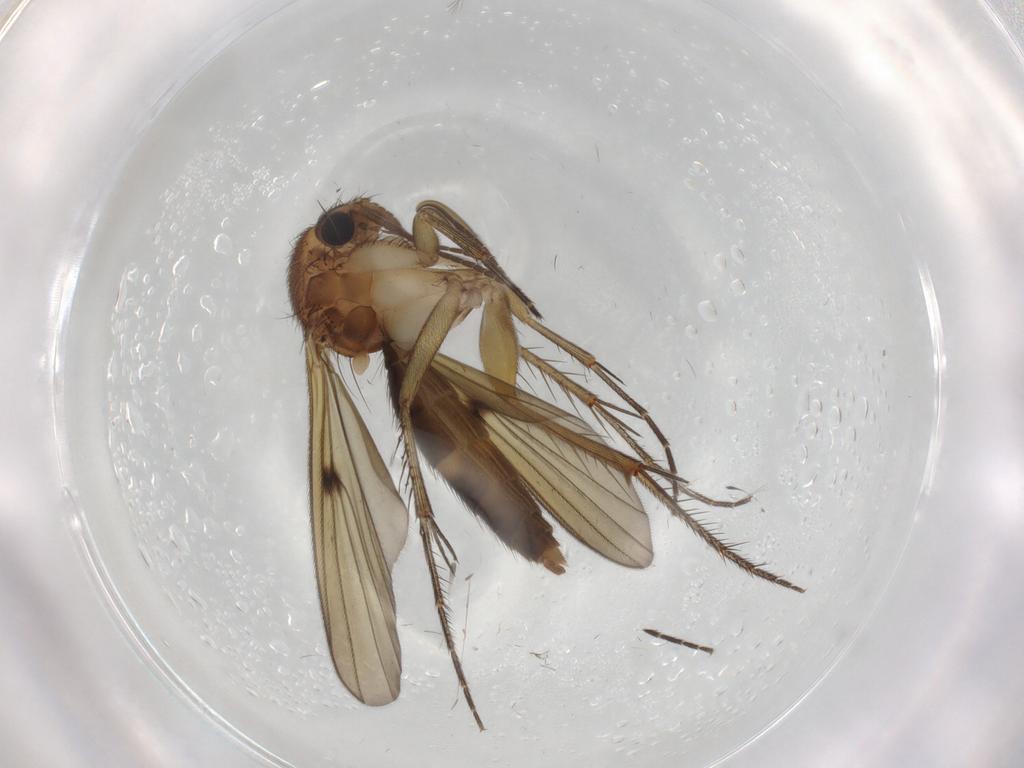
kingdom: Animalia
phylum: Arthropoda
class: Insecta
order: Diptera
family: Mycetophilidae
